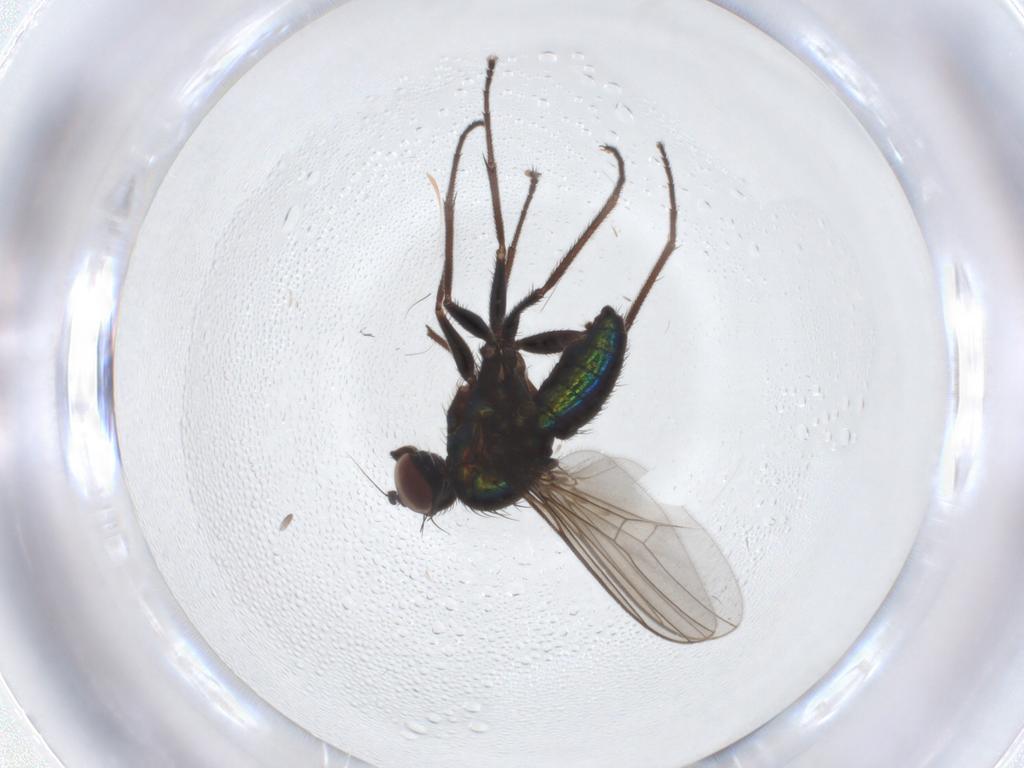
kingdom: Animalia
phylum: Arthropoda
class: Insecta
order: Diptera
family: Dolichopodidae
